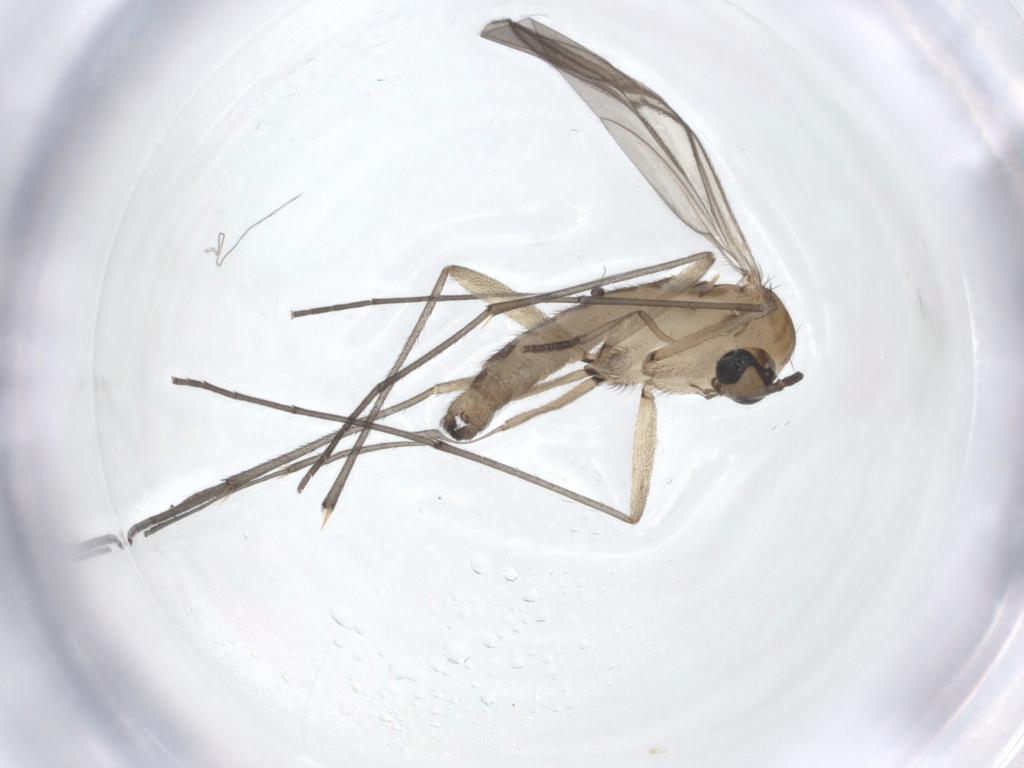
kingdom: Animalia
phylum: Arthropoda
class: Insecta
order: Diptera
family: Sciaridae
